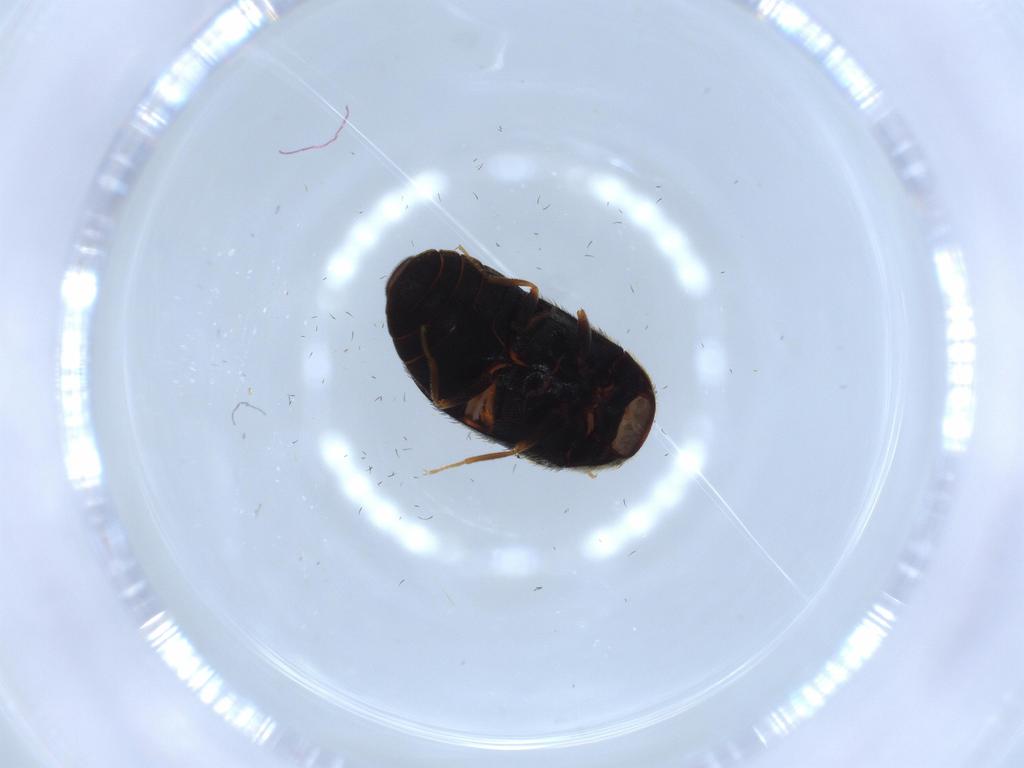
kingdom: Animalia
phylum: Arthropoda
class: Insecta
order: Coleoptera
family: Dermestidae
